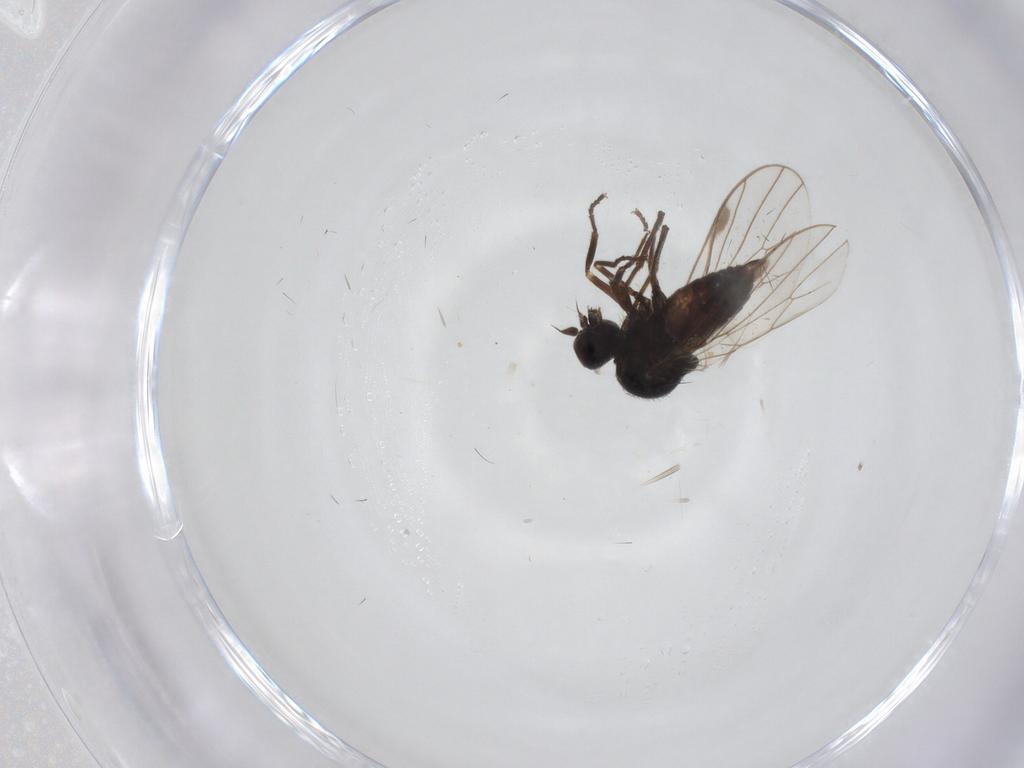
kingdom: Animalia
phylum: Arthropoda
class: Insecta
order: Diptera
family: Hybotidae
